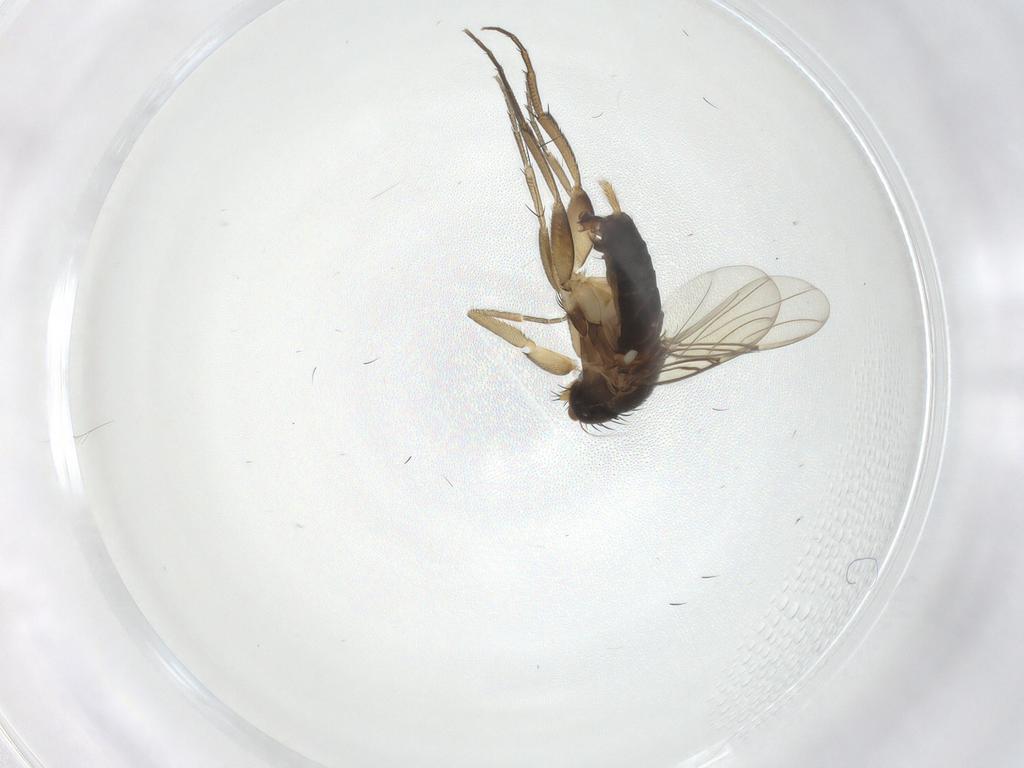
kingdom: Animalia
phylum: Arthropoda
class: Insecta
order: Diptera
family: Phoridae
